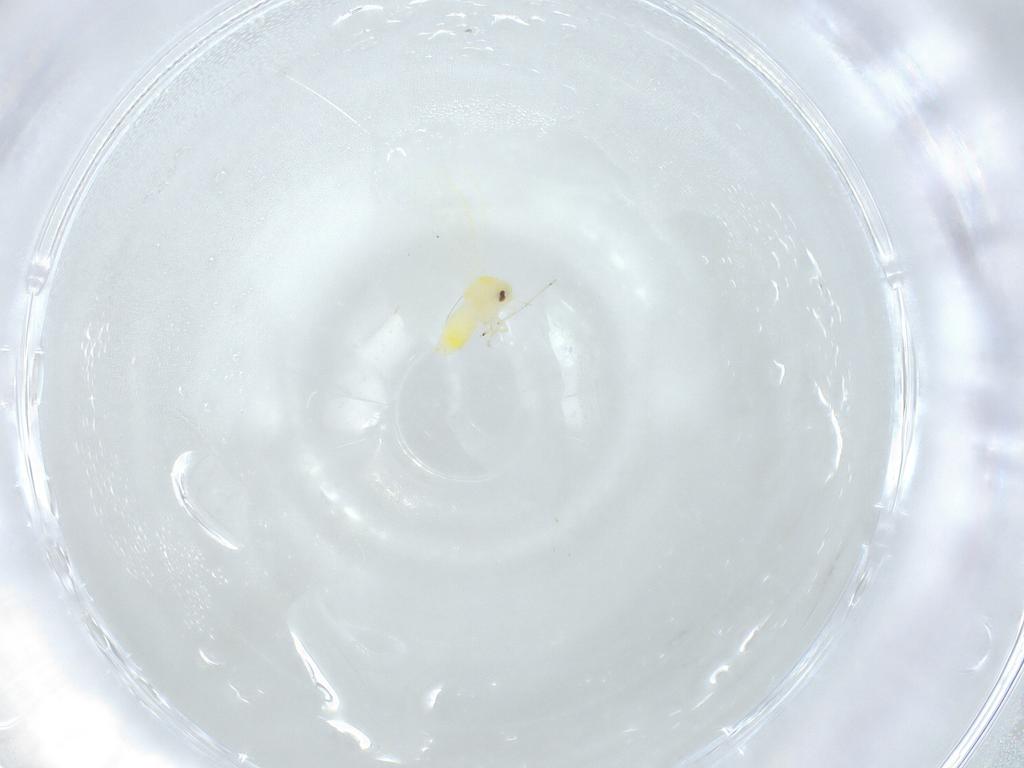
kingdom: Animalia
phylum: Arthropoda
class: Insecta
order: Hemiptera
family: Aleyrodidae
